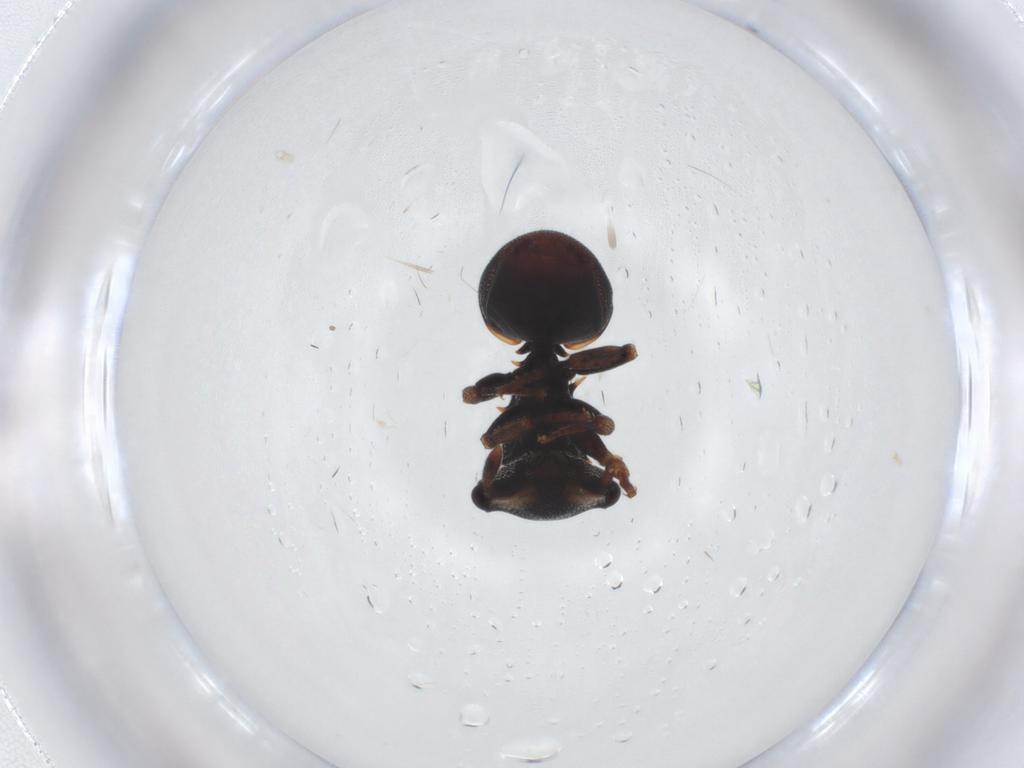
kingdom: Animalia
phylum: Arthropoda
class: Insecta
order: Hymenoptera
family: Formicidae
